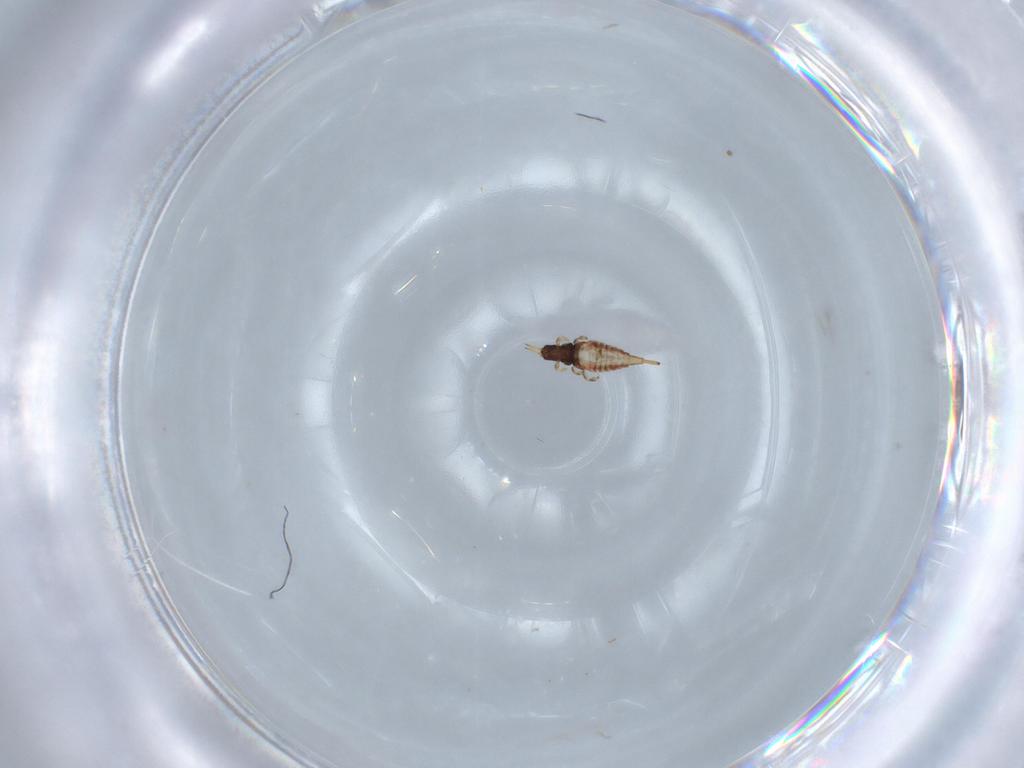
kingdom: Animalia
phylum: Arthropoda
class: Insecta
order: Thysanoptera
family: Phlaeothripidae
